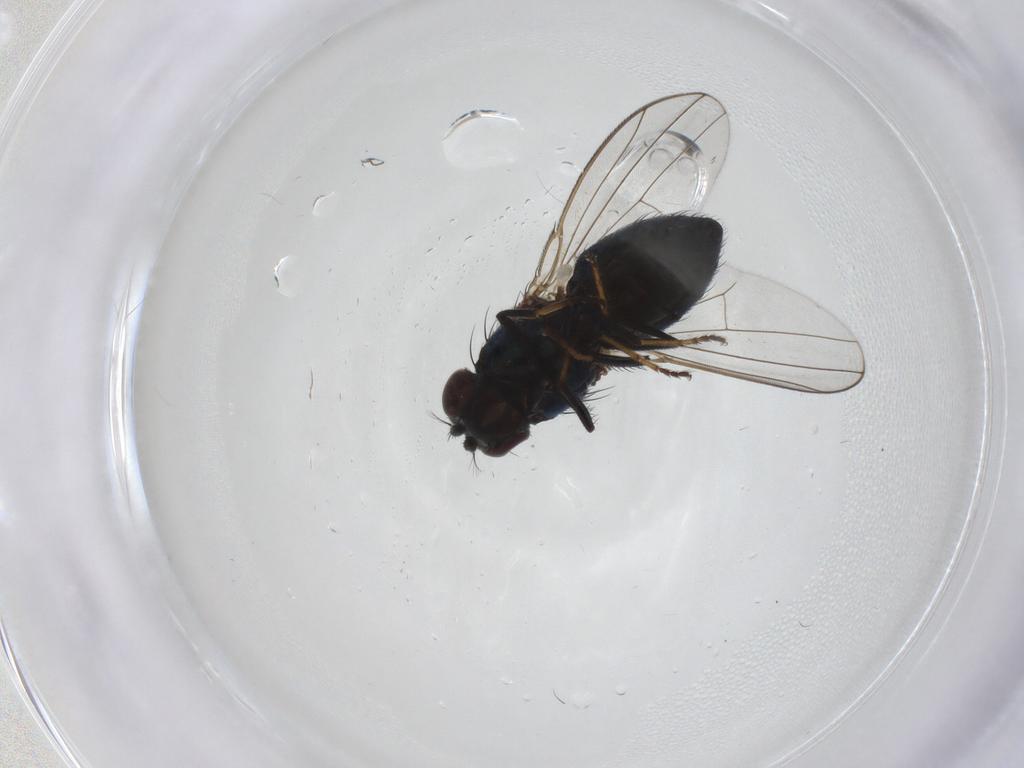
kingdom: Animalia
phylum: Arthropoda
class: Insecta
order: Diptera
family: Ephydridae
